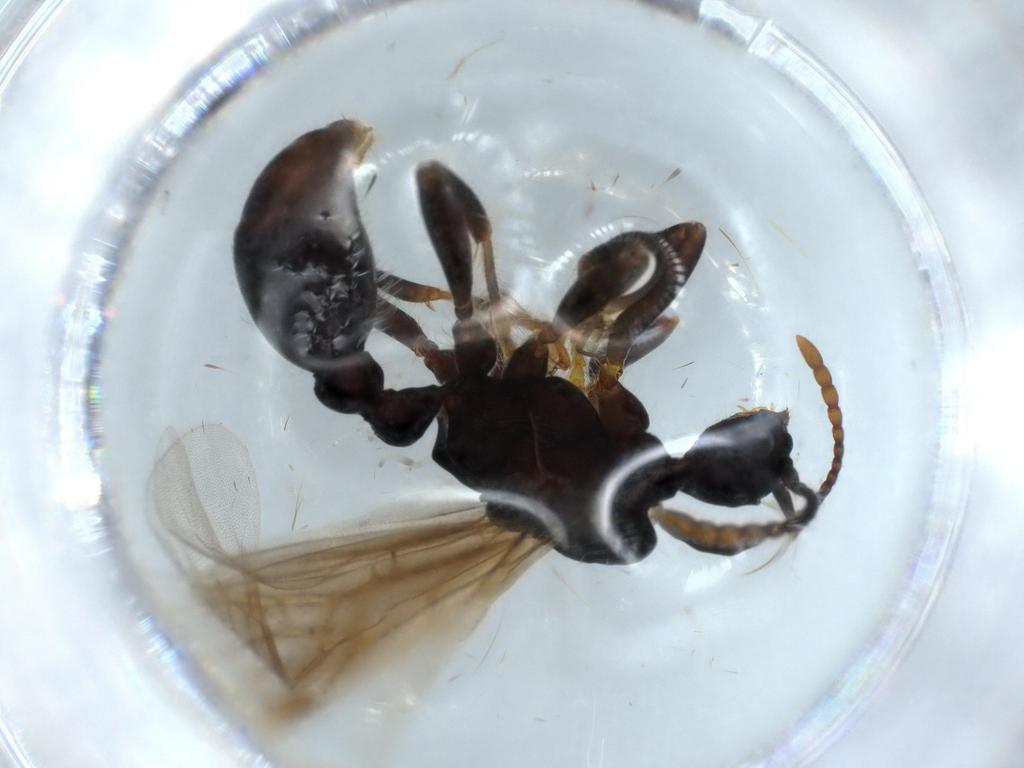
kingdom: Animalia
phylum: Arthropoda
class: Insecta
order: Hymenoptera
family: Formicidae
